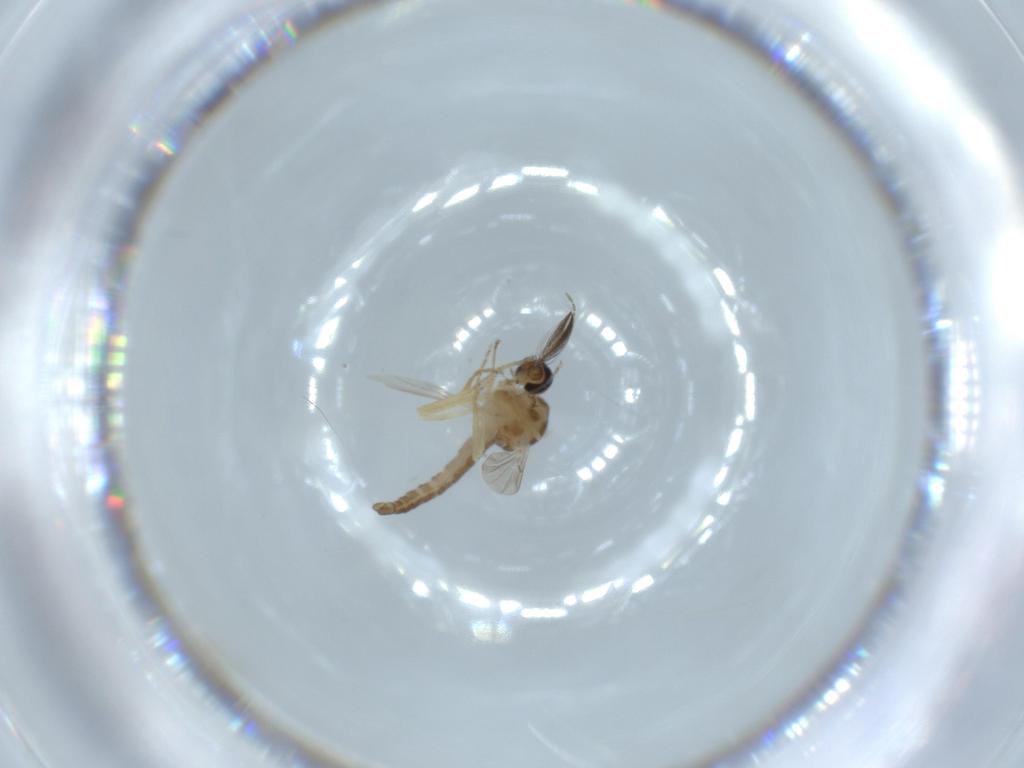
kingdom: Animalia
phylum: Arthropoda
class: Insecta
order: Diptera
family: Ceratopogonidae
